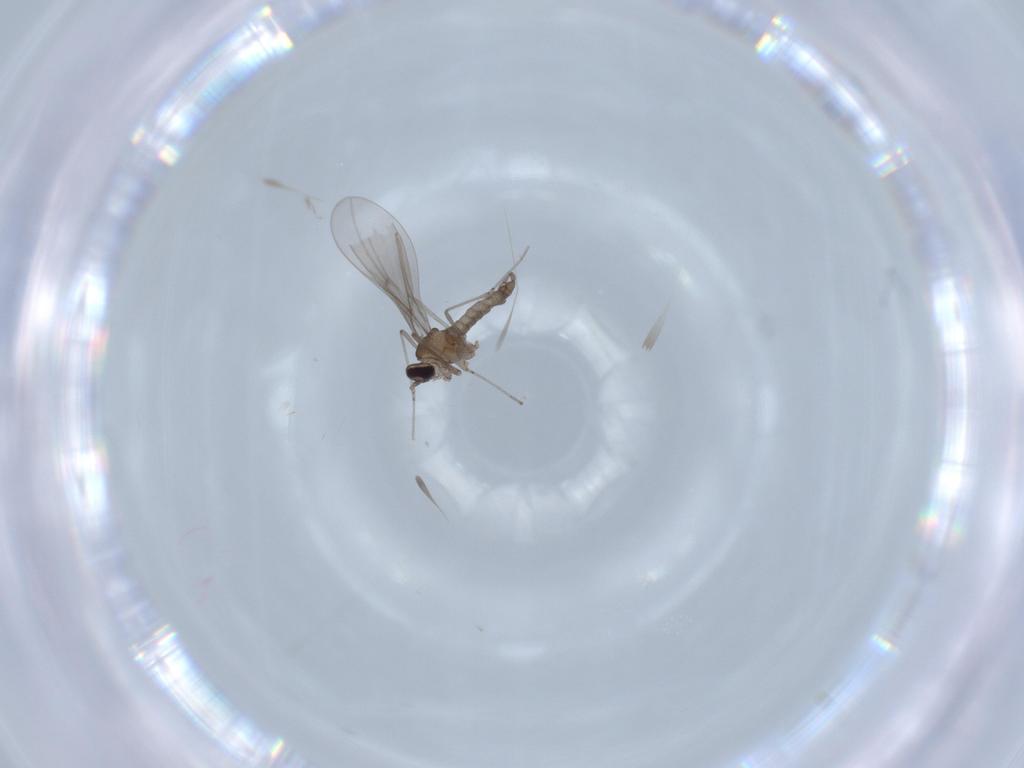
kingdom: Animalia
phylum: Arthropoda
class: Insecta
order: Diptera
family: Cecidomyiidae
